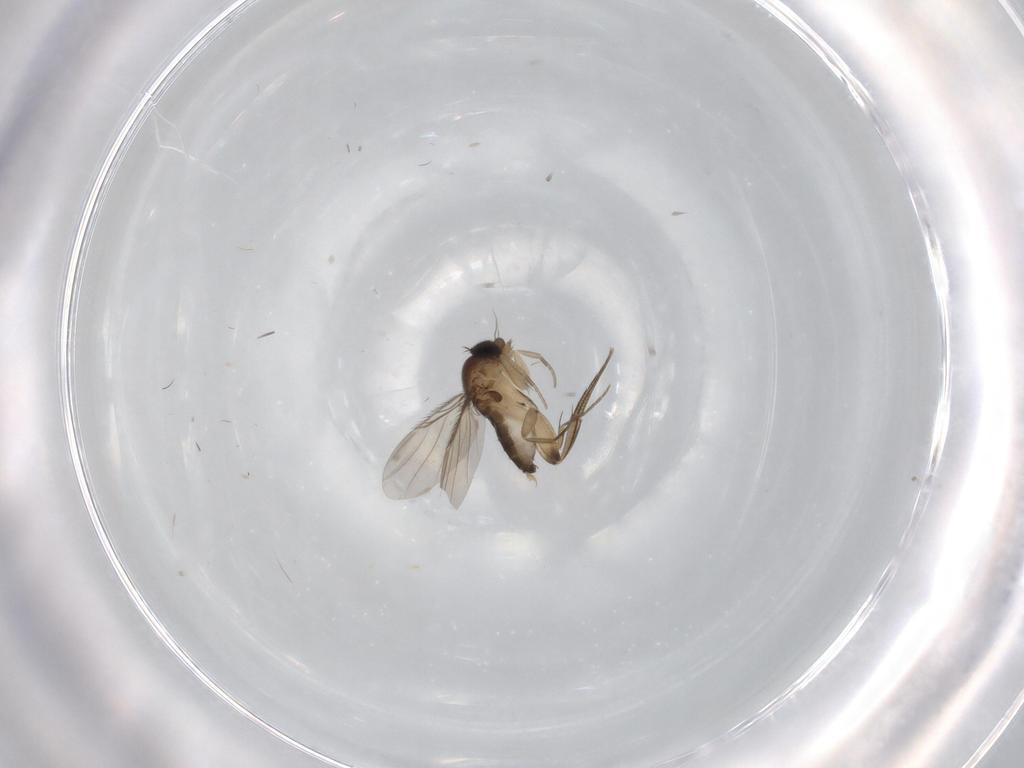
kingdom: Animalia
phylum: Arthropoda
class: Insecta
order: Diptera
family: Phoridae
